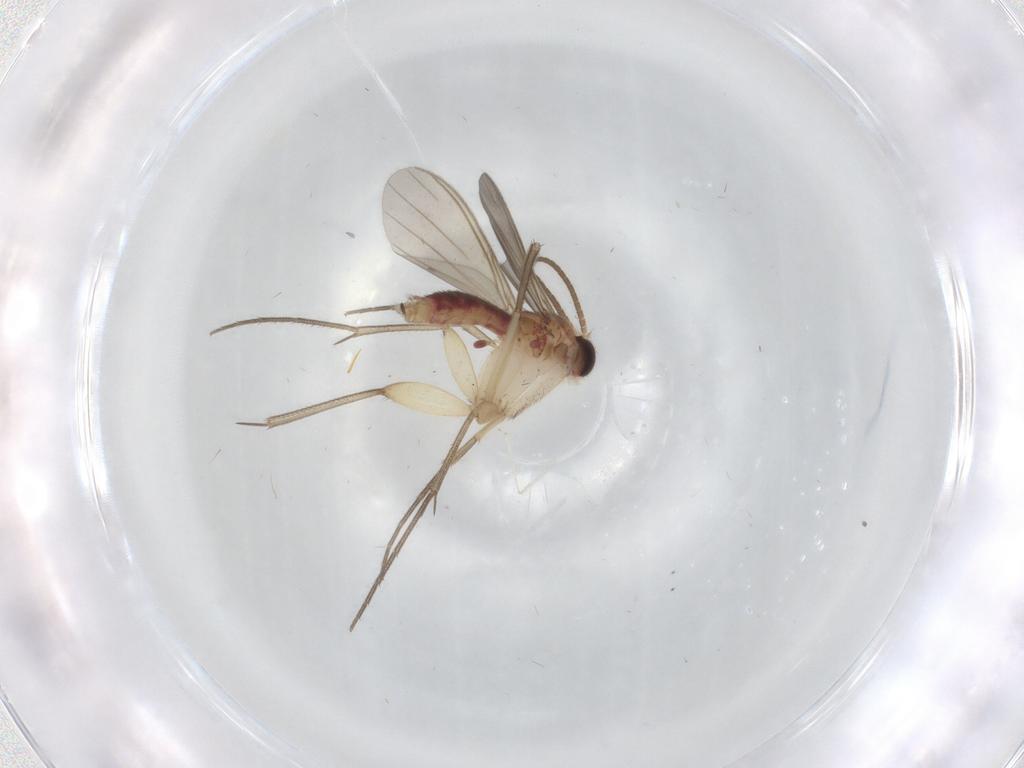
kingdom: Animalia
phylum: Arthropoda
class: Insecta
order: Diptera
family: Mycetophilidae
